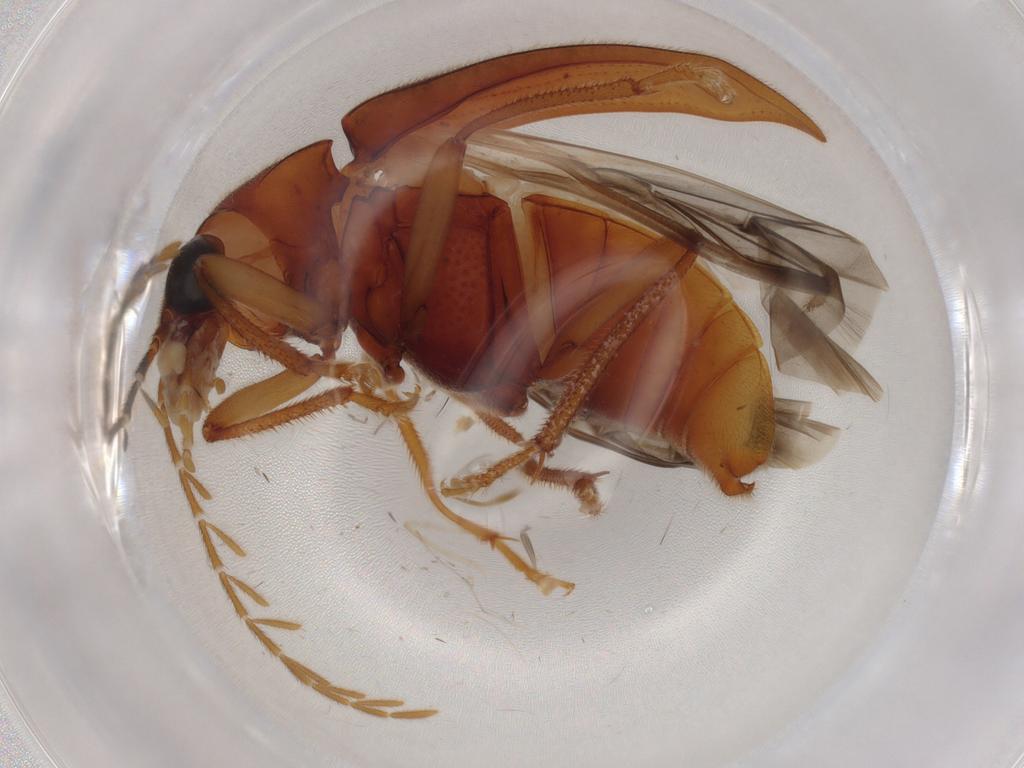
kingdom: Animalia
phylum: Arthropoda
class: Insecta
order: Coleoptera
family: Ptilodactylidae
